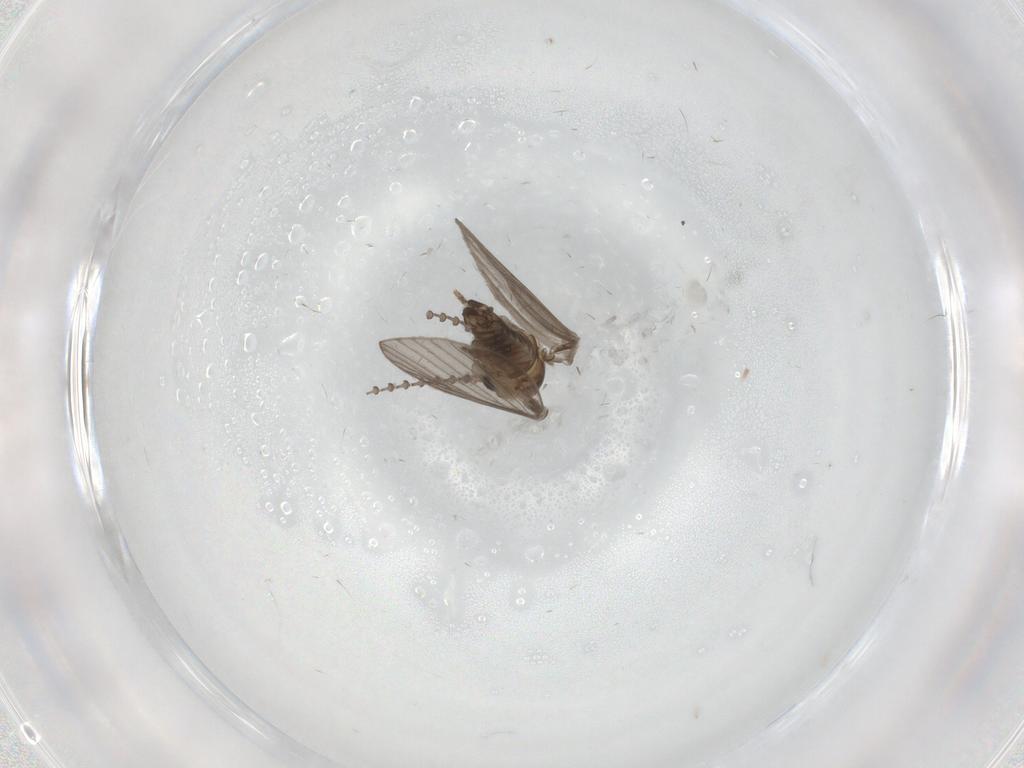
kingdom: Animalia
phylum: Arthropoda
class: Insecta
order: Diptera
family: Psychodidae
